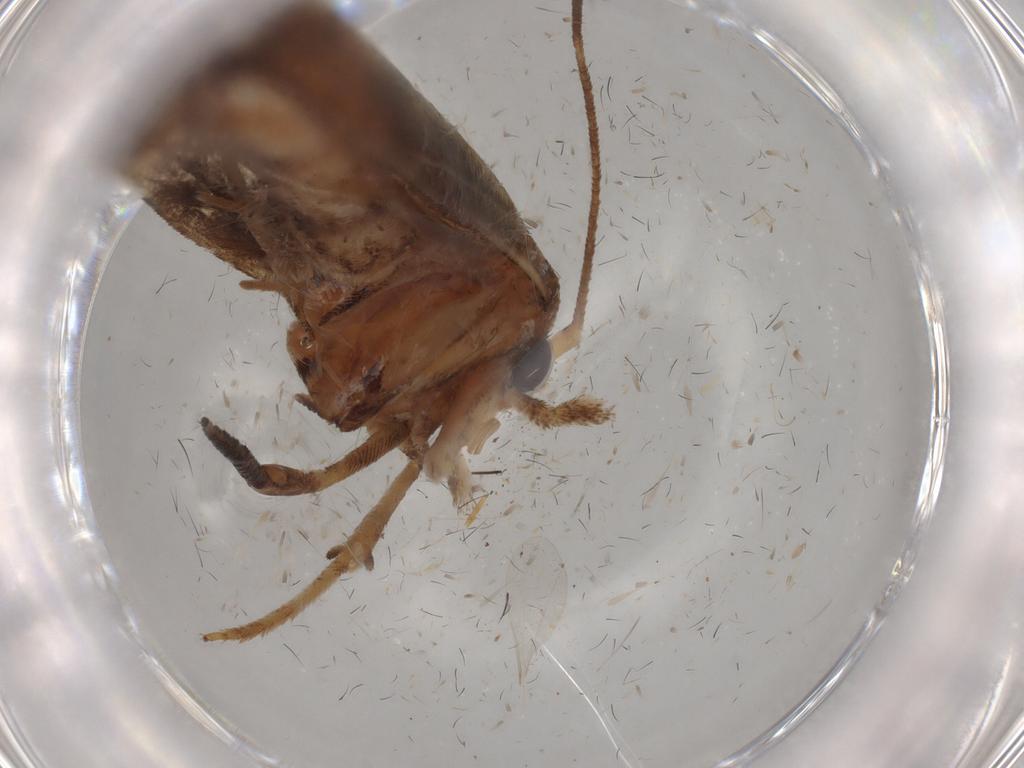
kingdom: Animalia
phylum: Arthropoda
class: Insecta
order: Lepidoptera
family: Yponomeutidae
